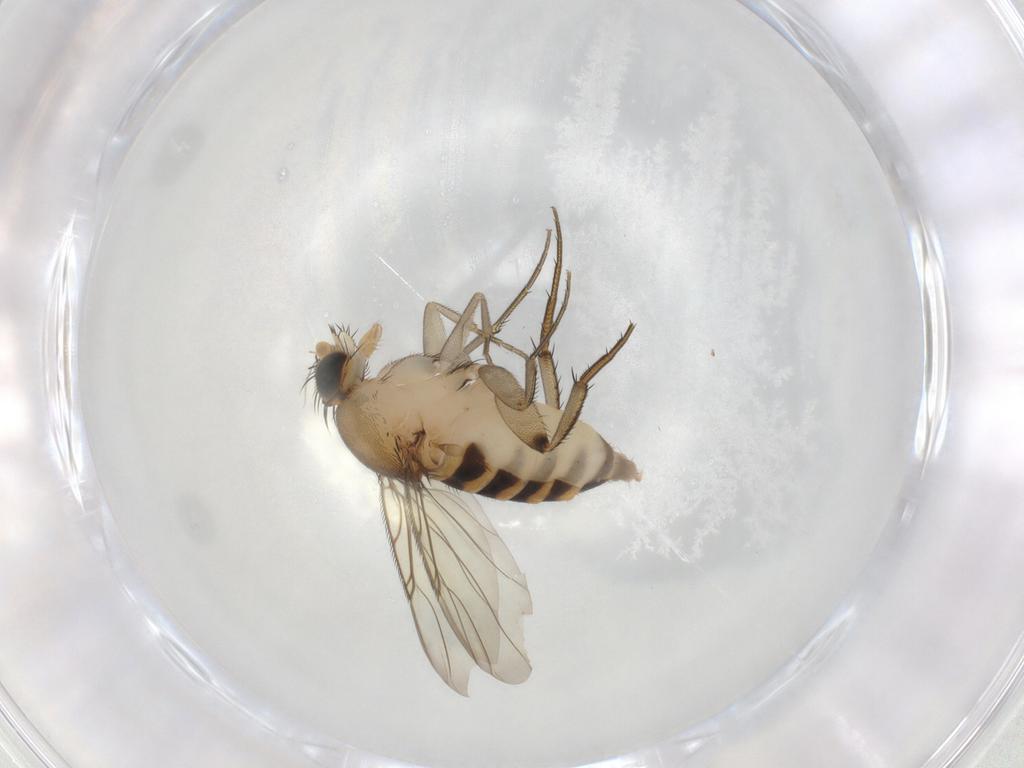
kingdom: Animalia
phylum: Arthropoda
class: Insecta
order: Diptera
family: Phoridae
